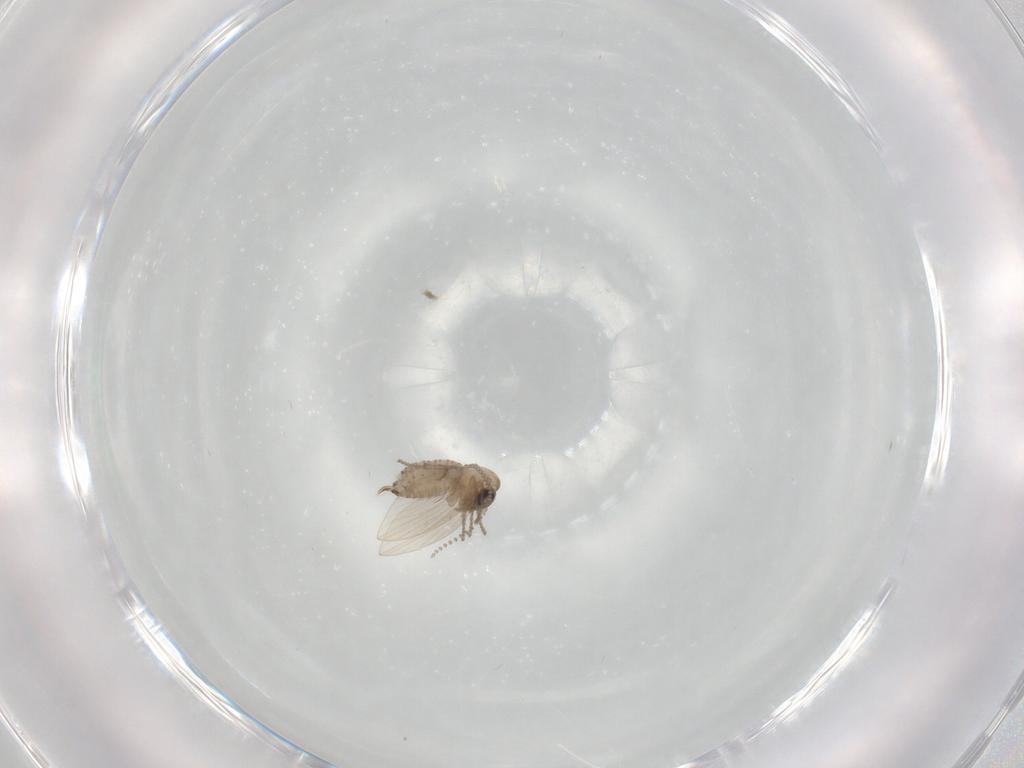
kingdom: Animalia
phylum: Arthropoda
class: Insecta
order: Diptera
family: Psychodidae
